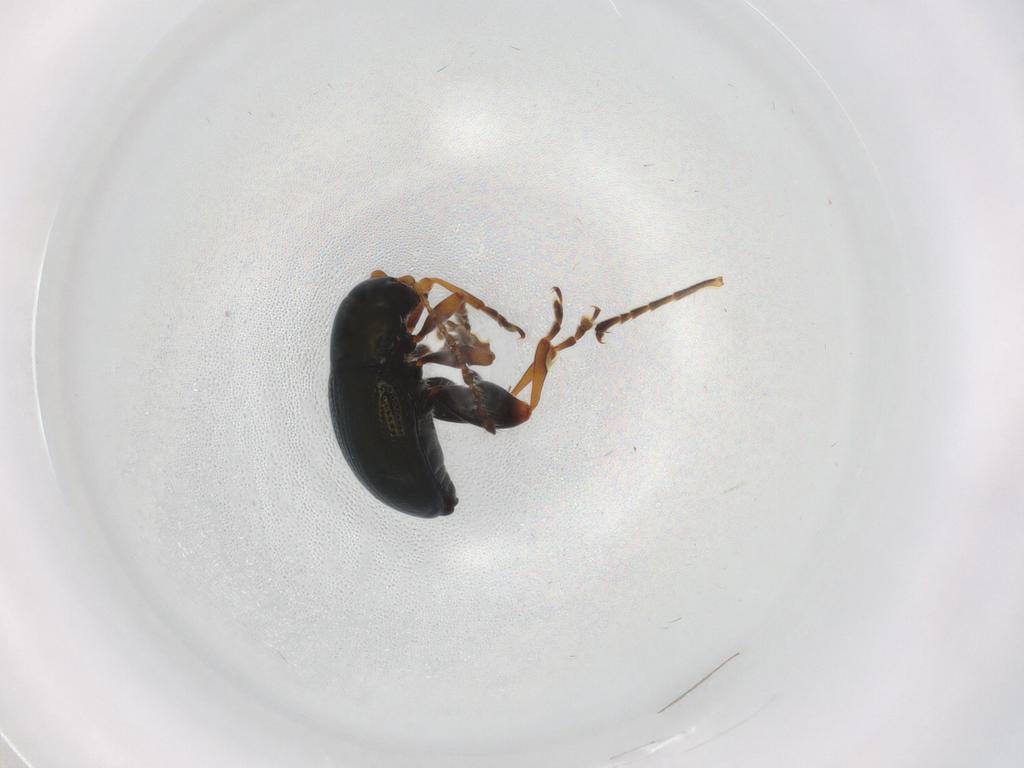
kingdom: Animalia
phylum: Arthropoda
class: Insecta
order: Coleoptera
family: Chrysomelidae
